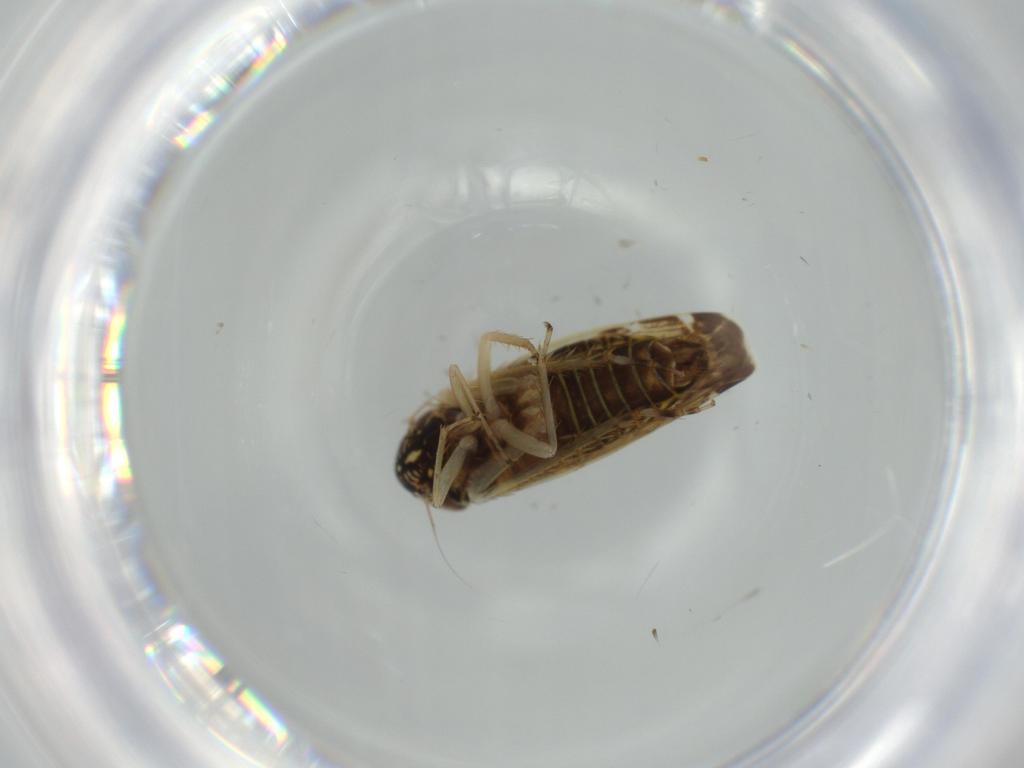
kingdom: Animalia
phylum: Arthropoda
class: Insecta
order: Hemiptera
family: Cicadellidae
